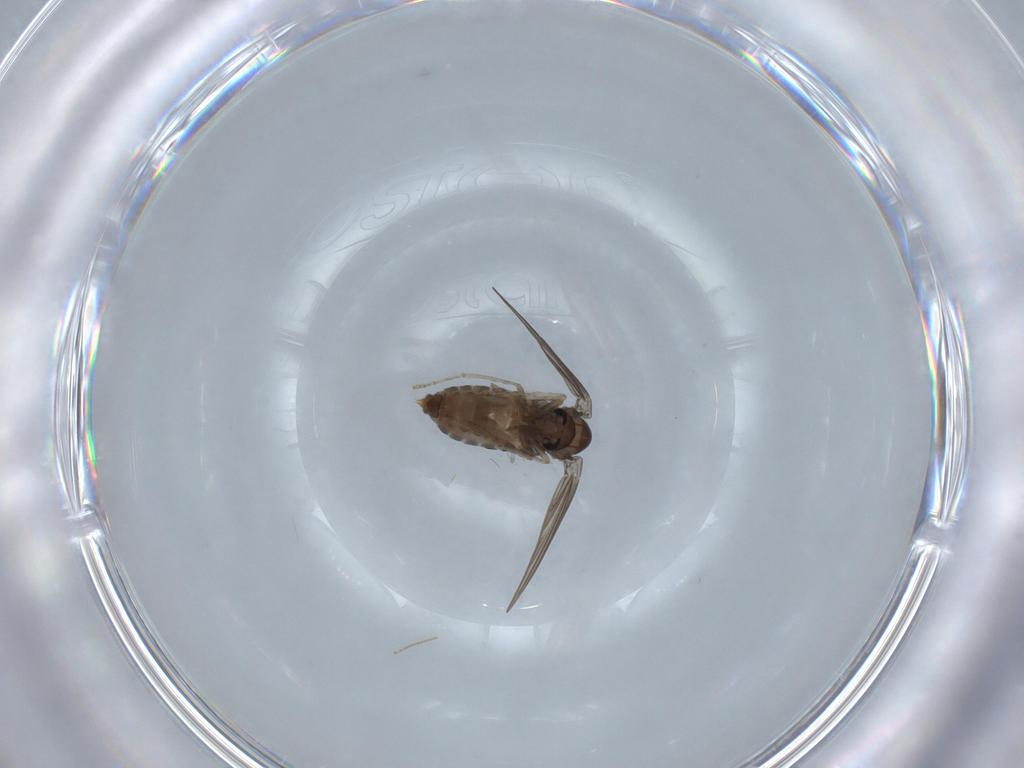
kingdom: Animalia
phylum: Arthropoda
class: Insecta
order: Diptera
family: Psychodidae
